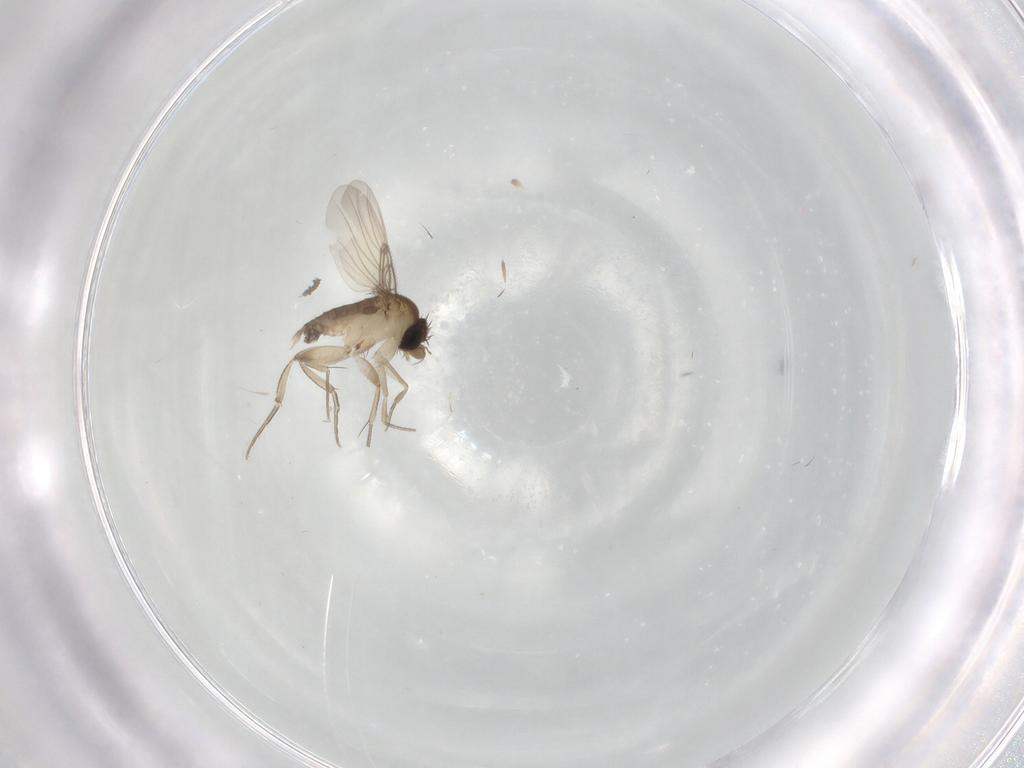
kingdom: Animalia
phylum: Arthropoda
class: Insecta
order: Diptera
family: Phoridae
